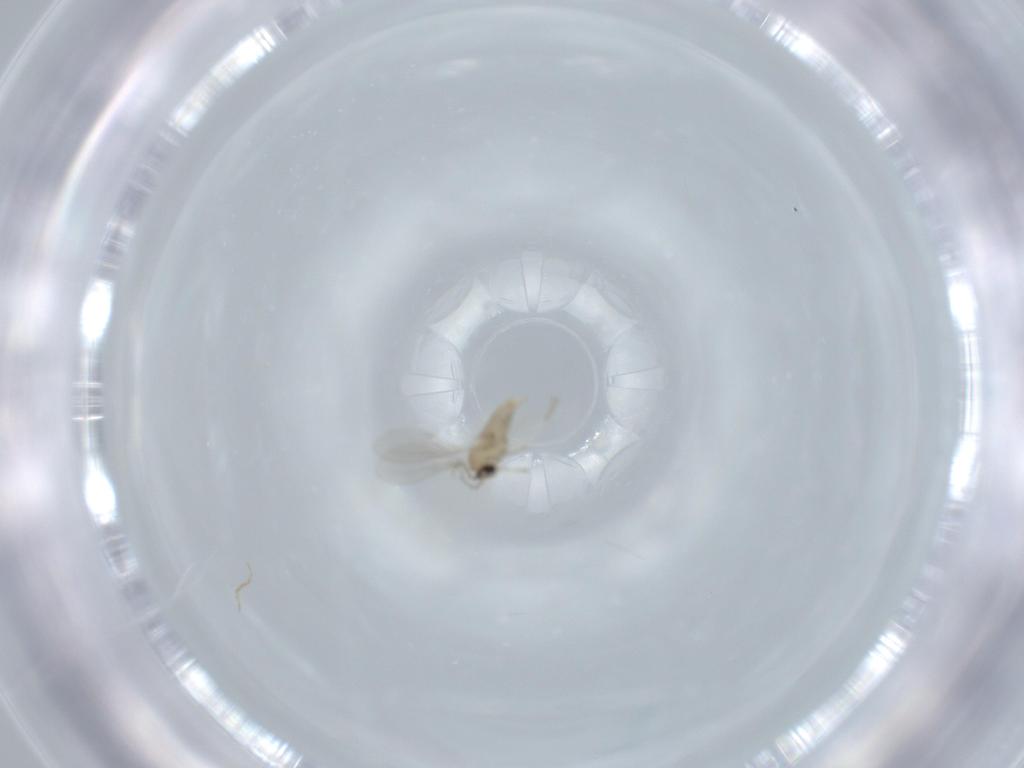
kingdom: Animalia
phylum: Arthropoda
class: Insecta
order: Diptera
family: Cecidomyiidae
